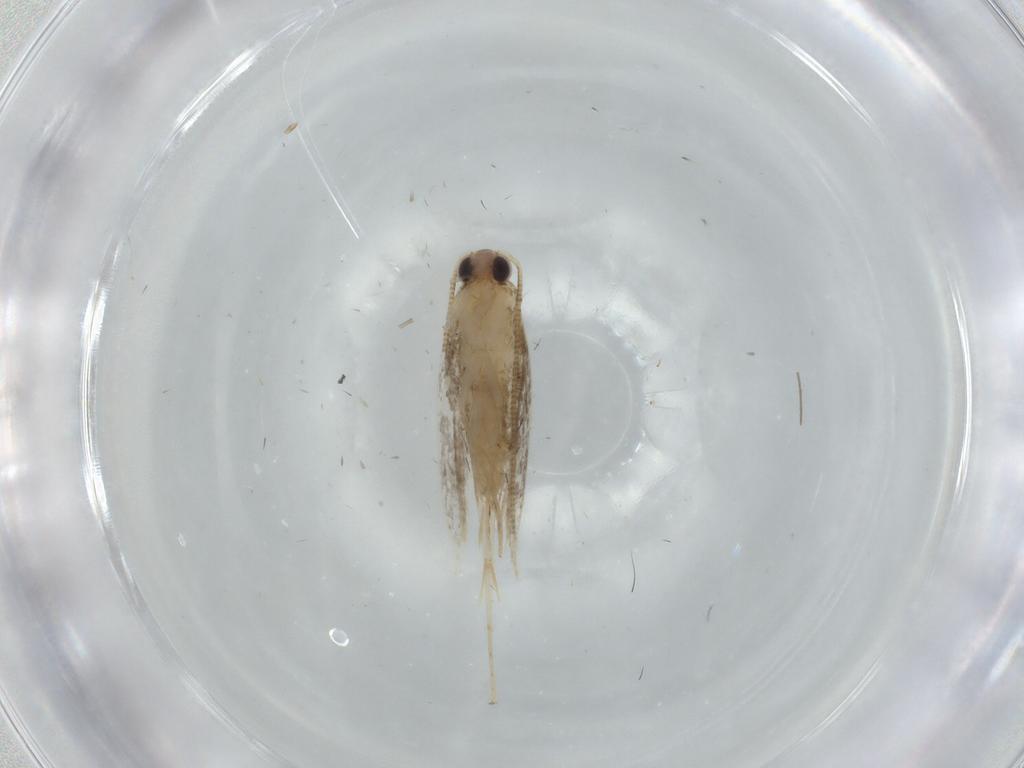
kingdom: Animalia
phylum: Arthropoda
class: Insecta
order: Lepidoptera
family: Tineidae
